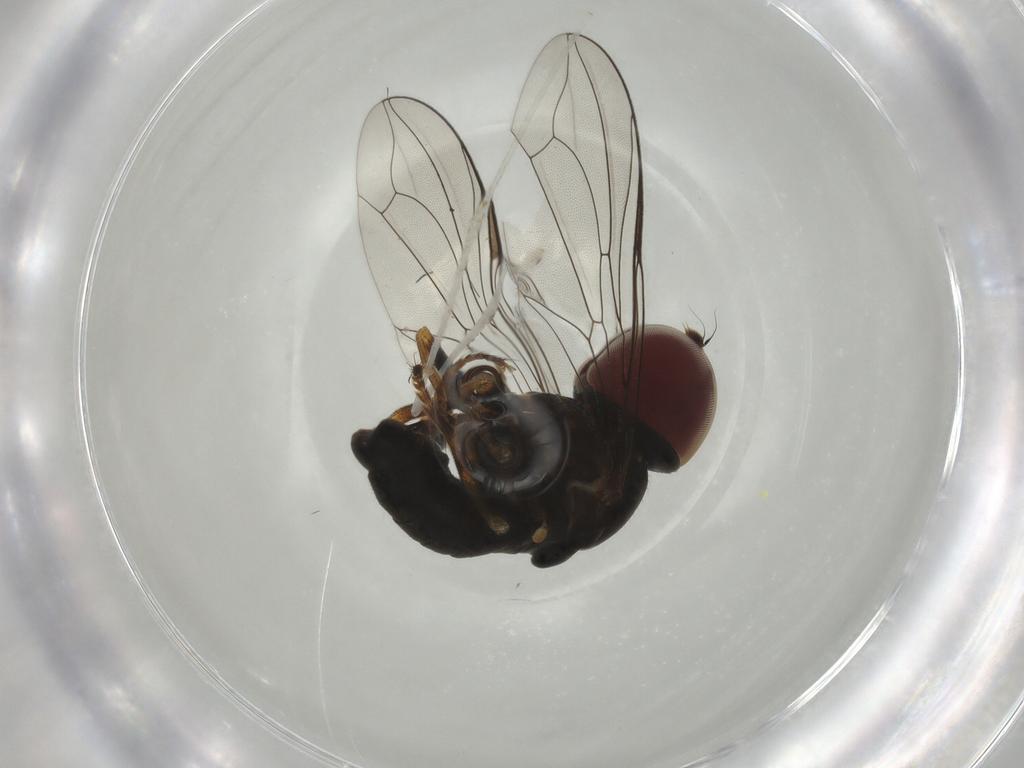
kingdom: Animalia
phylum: Arthropoda
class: Insecta
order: Diptera
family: Pipunculidae
